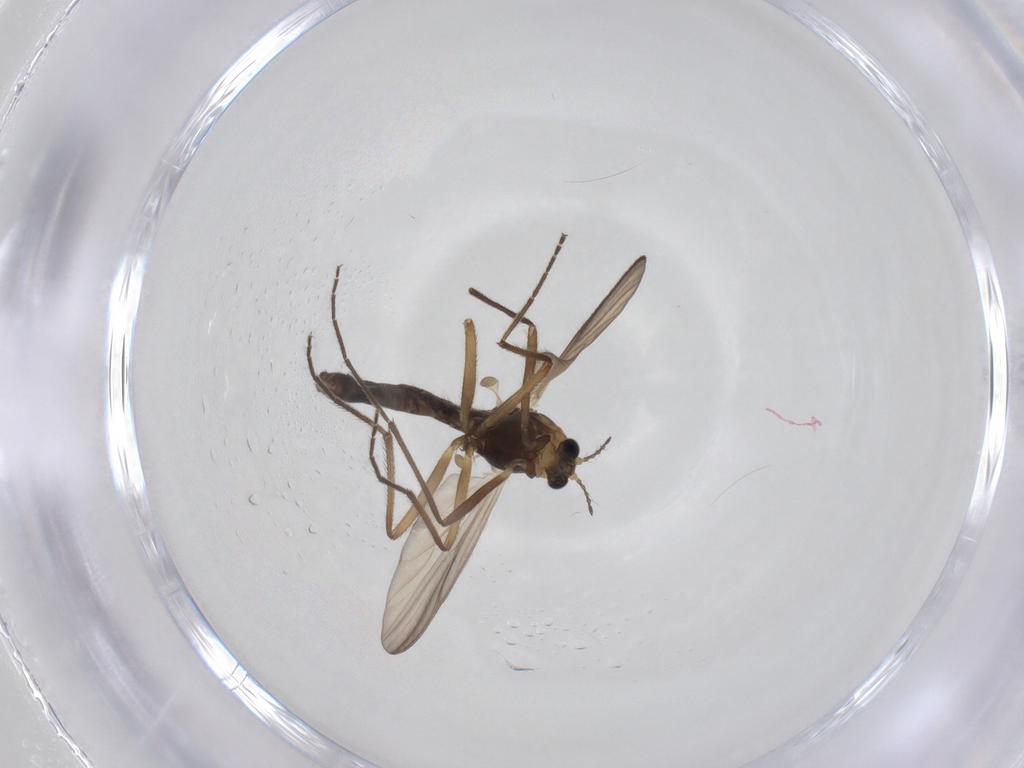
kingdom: Animalia
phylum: Arthropoda
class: Insecta
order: Diptera
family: Chironomidae
